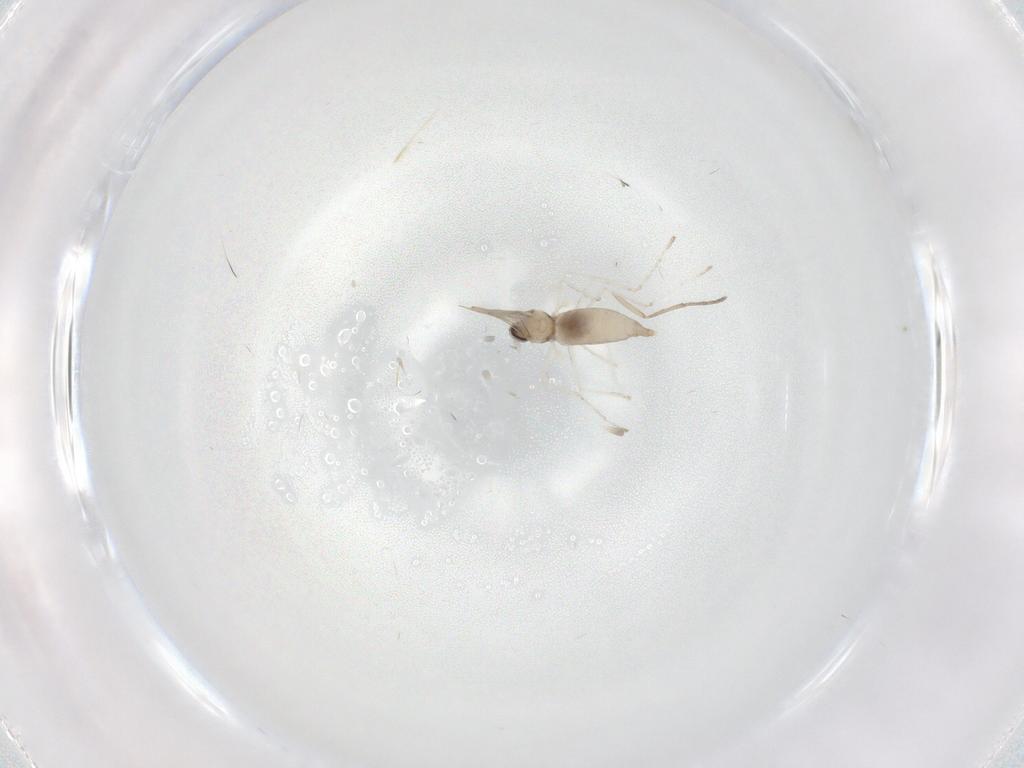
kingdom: Animalia
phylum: Arthropoda
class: Insecta
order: Diptera
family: Cecidomyiidae
